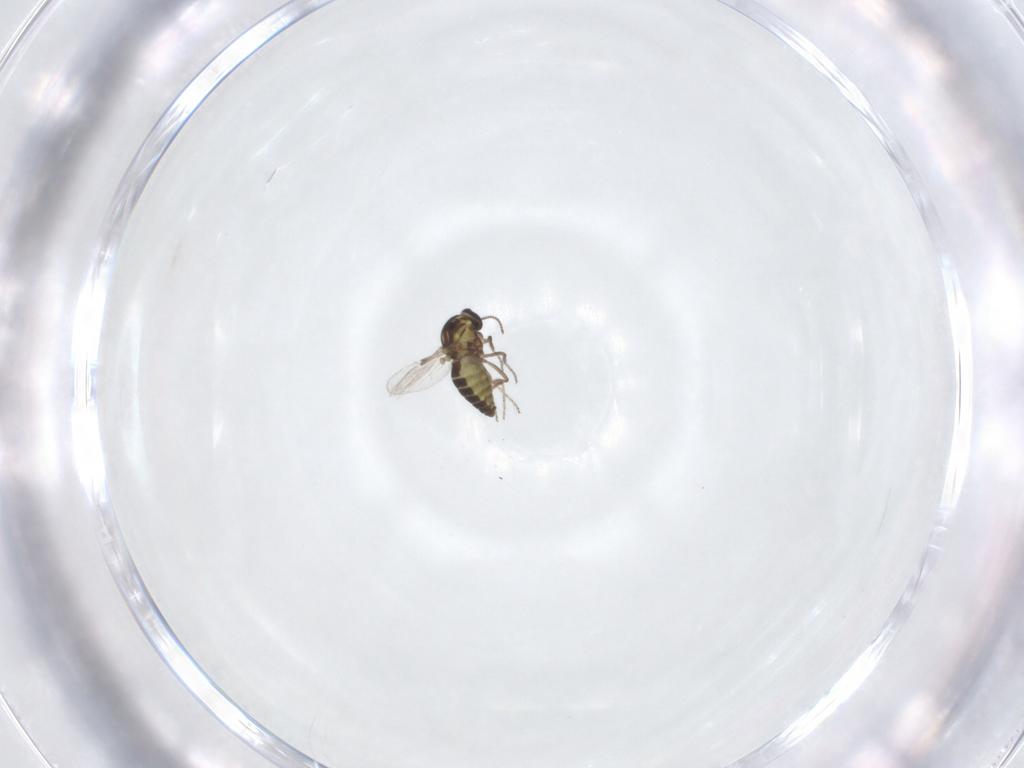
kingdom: Animalia
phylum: Arthropoda
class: Insecta
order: Diptera
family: Ceratopogonidae
